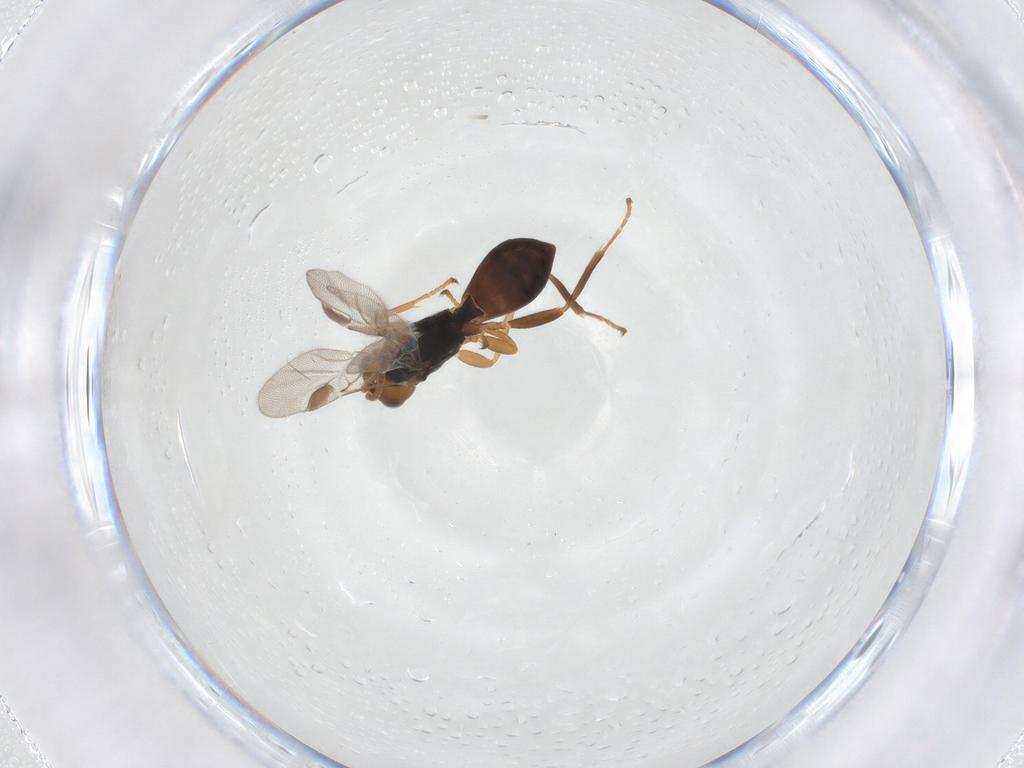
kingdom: Animalia
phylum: Arthropoda
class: Insecta
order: Hymenoptera
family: Braconidae
